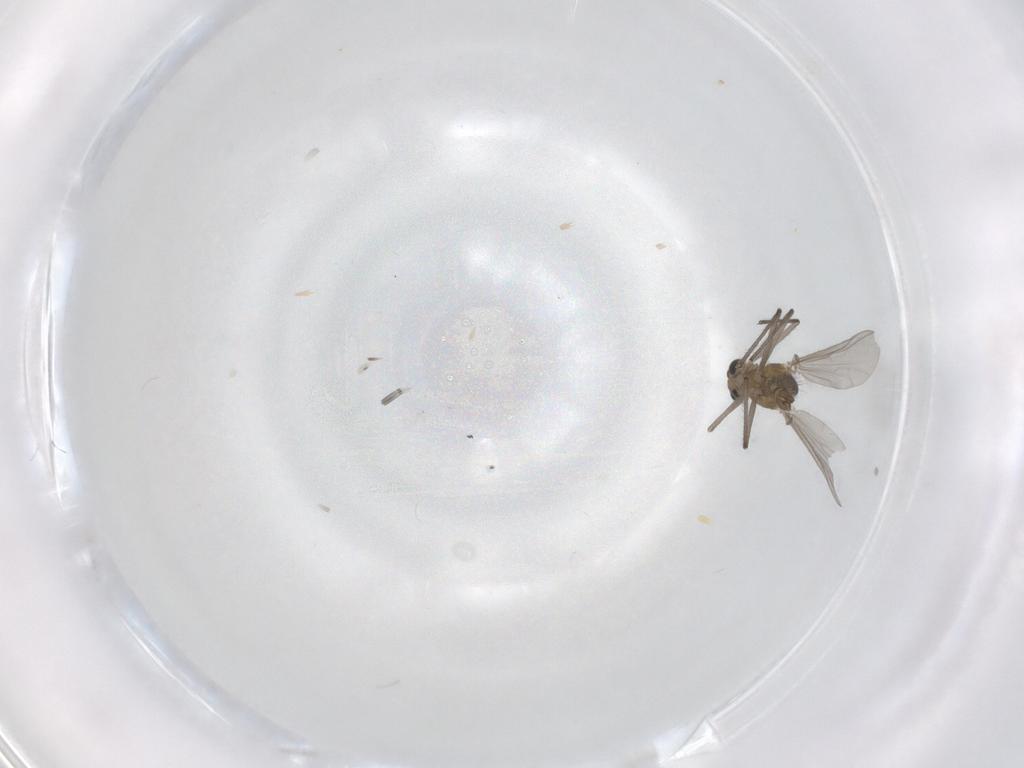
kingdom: Animalia
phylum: Arthropoda
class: Insecta
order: Diptera
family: Chironomidae
